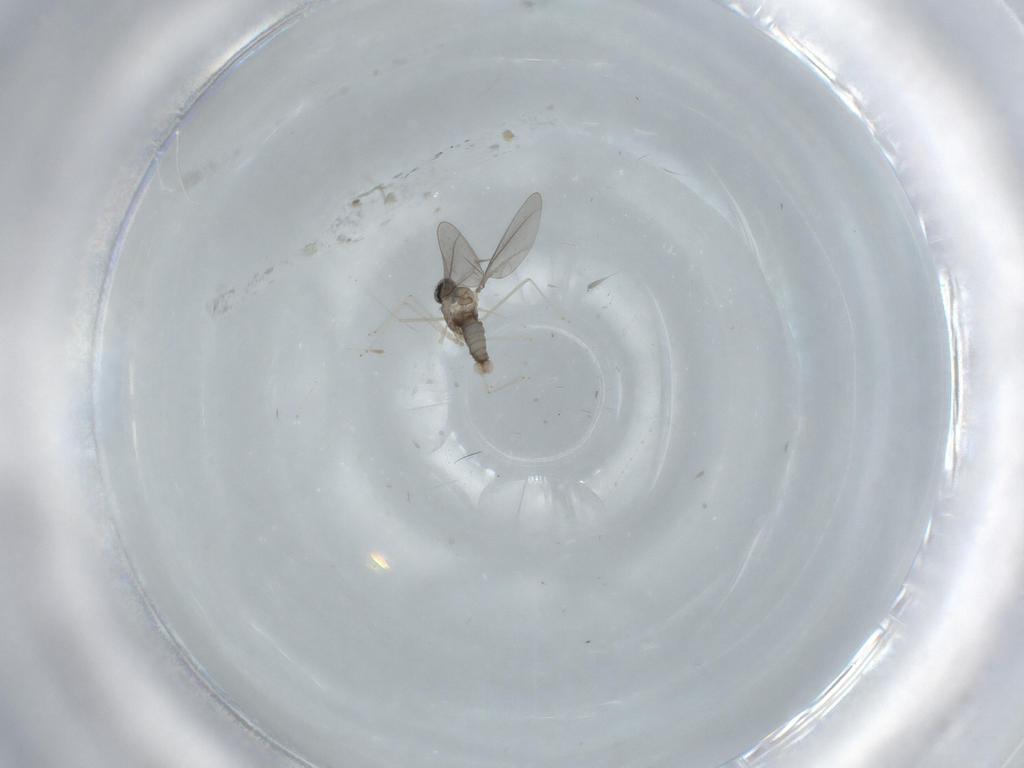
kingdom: Animalia
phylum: Arthropoda
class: Insecta
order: Diptera
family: Cecidomyiidae
